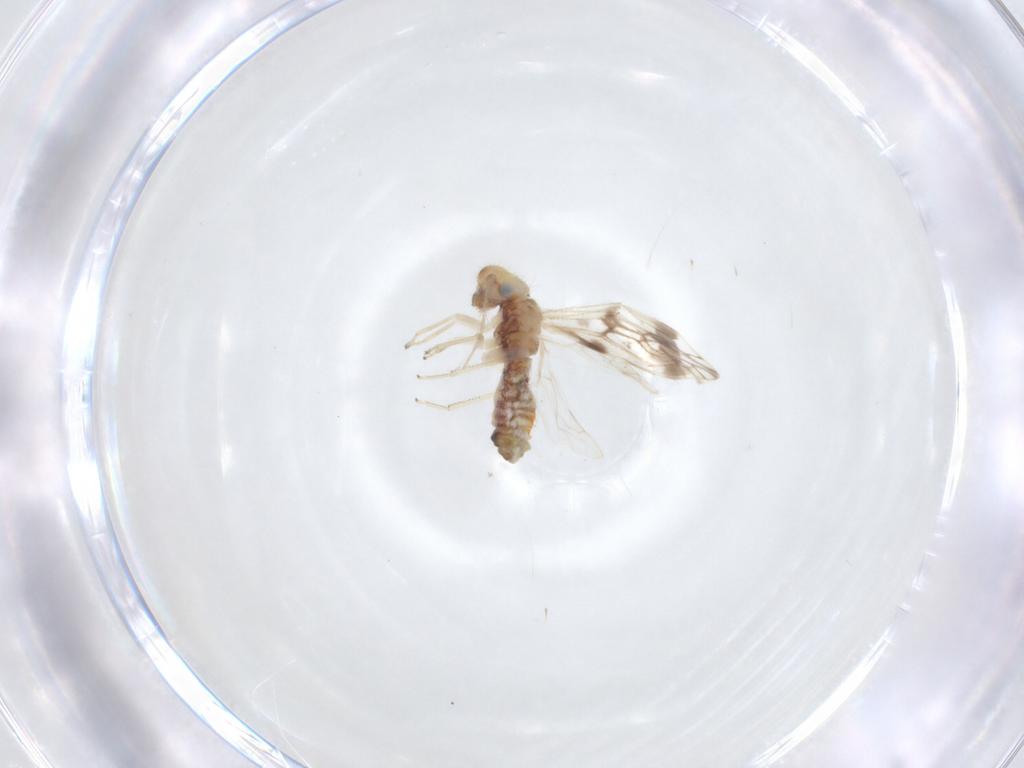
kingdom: Animalia
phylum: Arthropoda
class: Insecta
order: Psocodea
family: Pseudocaeciliidae
